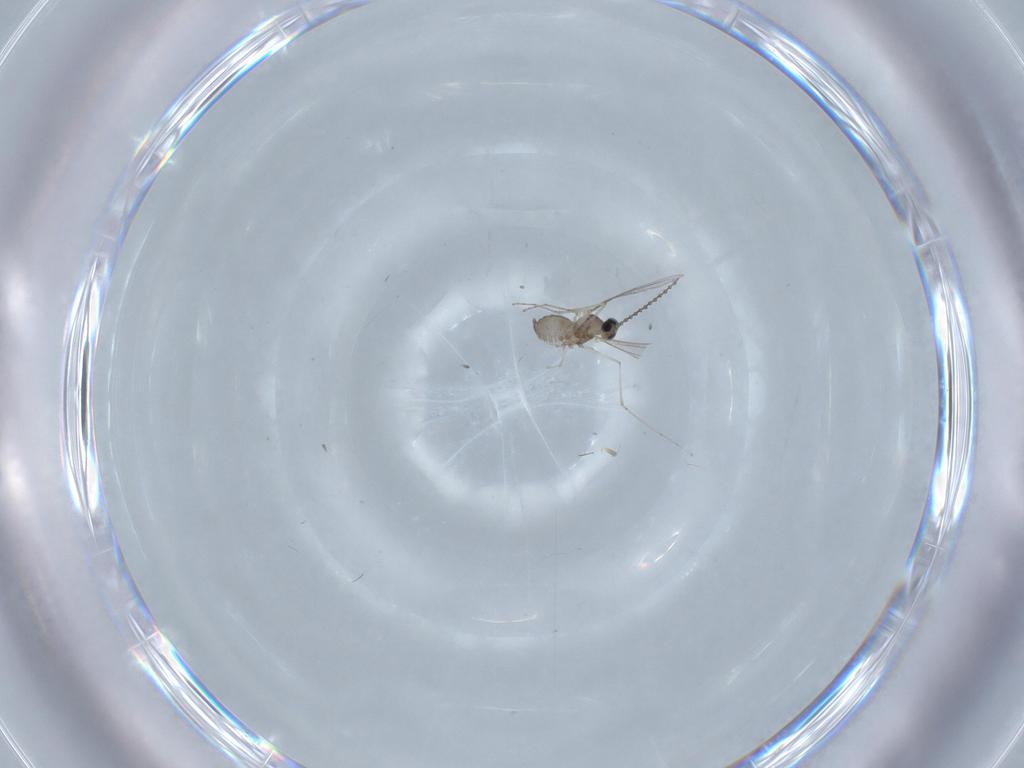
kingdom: Animalia
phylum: Arthropoda
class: Insecta
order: Diptera
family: Cecidomyiidae
